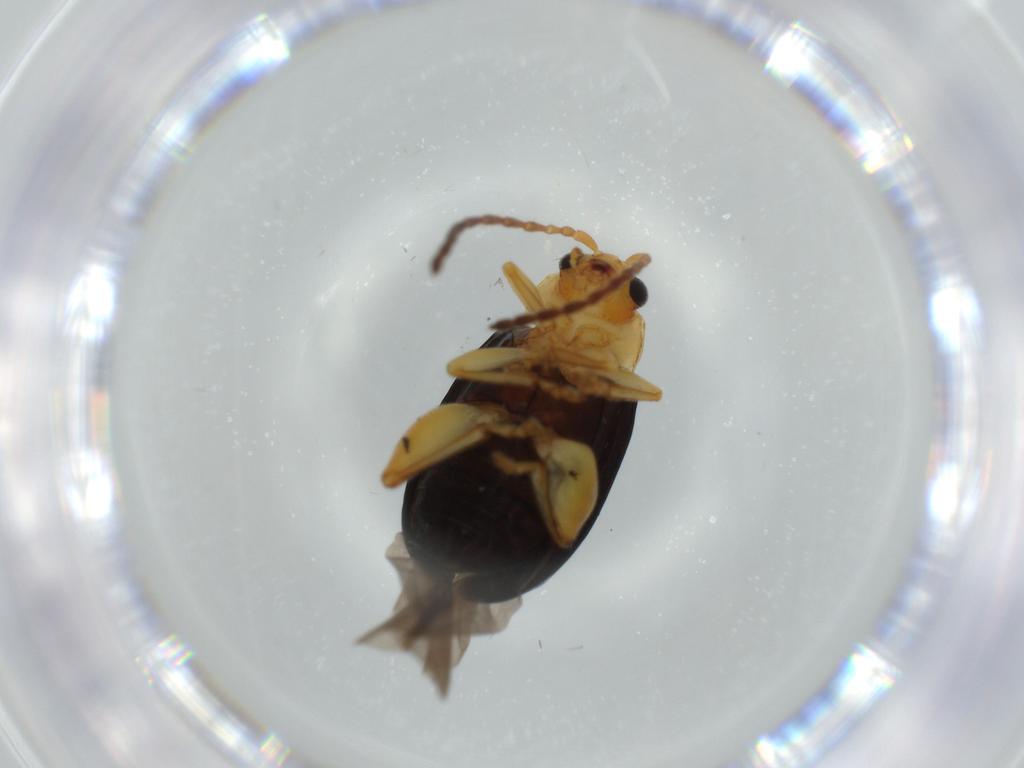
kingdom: Animalia
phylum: Arthropoda
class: Insecta
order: Coleoptera
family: Chrysomelidae
